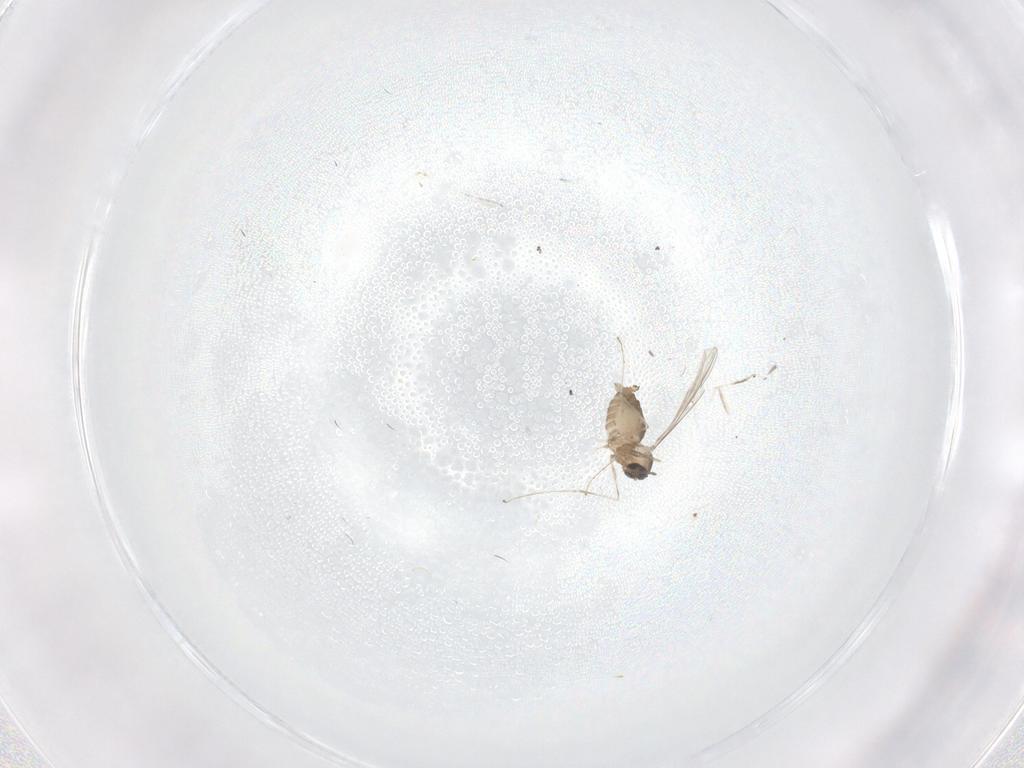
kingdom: Animalia
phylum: Arthropoda
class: Insecta
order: Diptera
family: Cecidomyiidae
